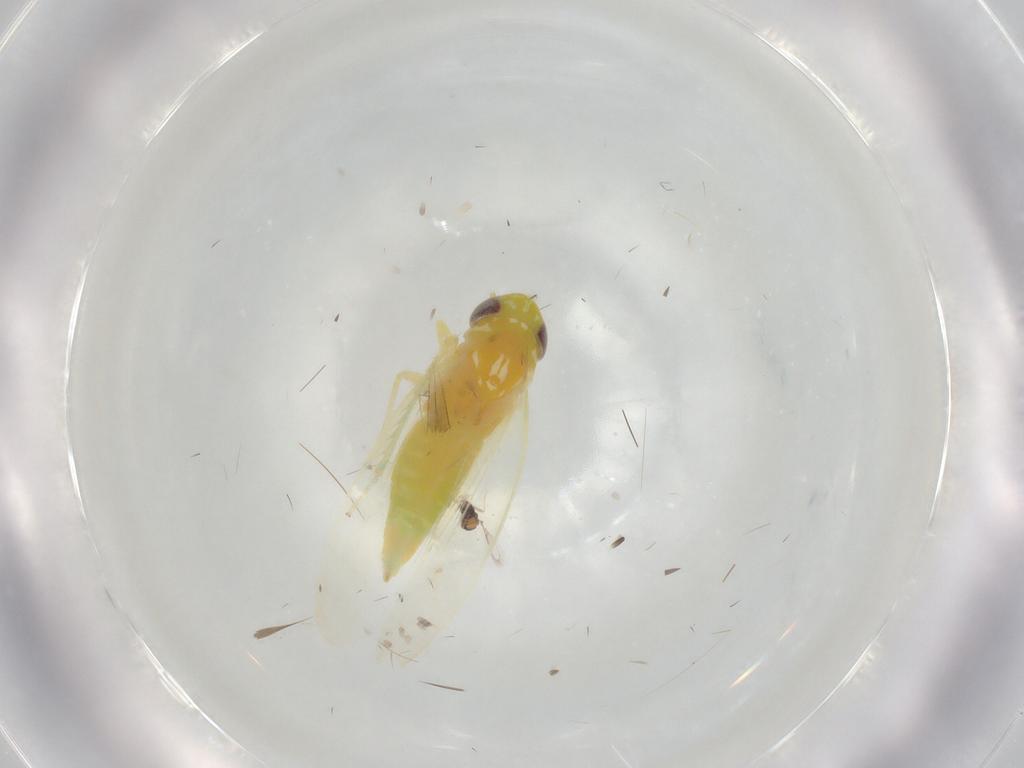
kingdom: Animalia
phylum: Arthropoda
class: Insecta
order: Hemiptera
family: Cicadellidae
